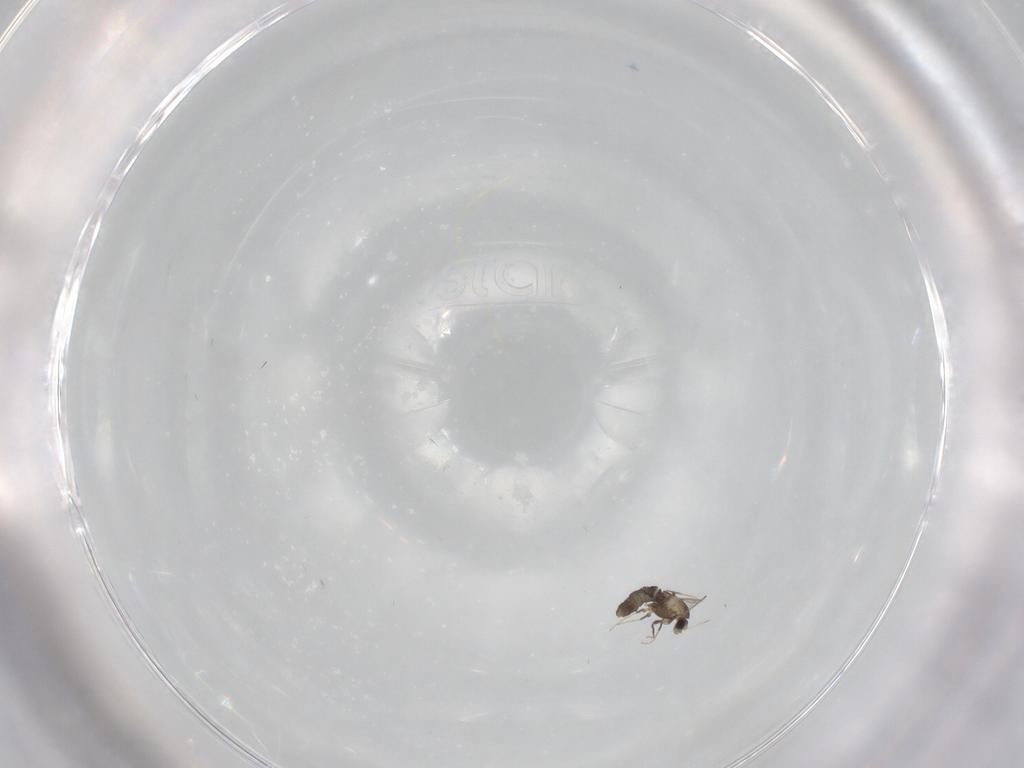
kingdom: Animalia
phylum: Arthropoda
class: Insecta
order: Diptera
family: Chironomidae
